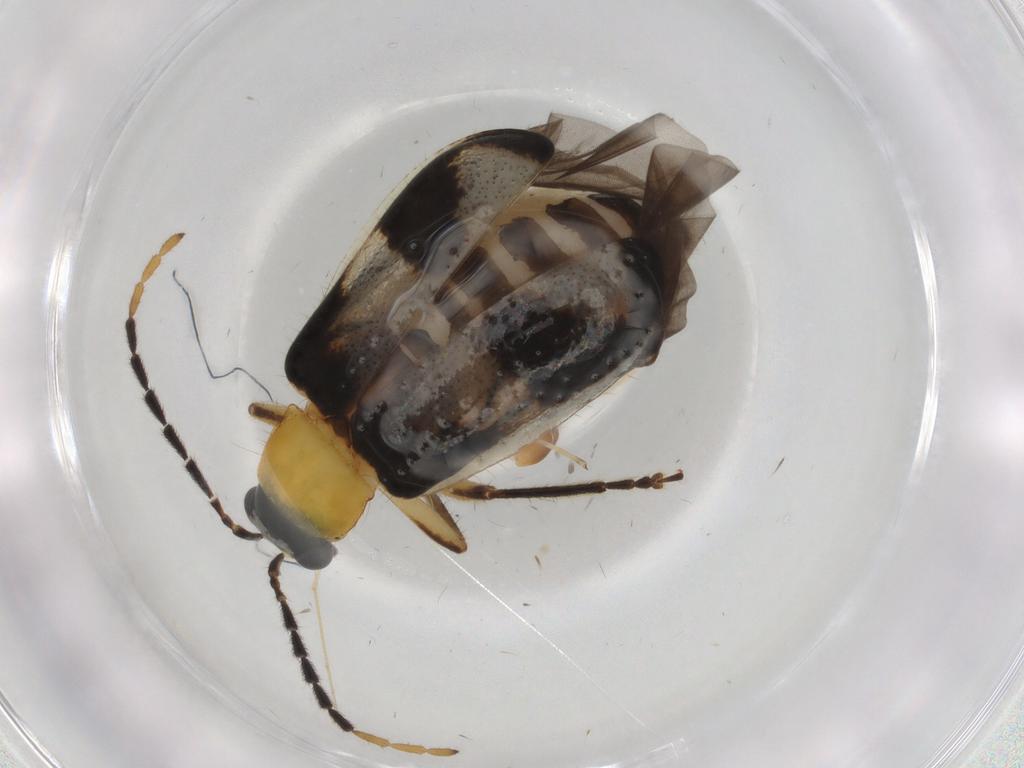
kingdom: Animalia
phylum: Arthropoda
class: Insecta
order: Coleoptera
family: Chrysomelidae
